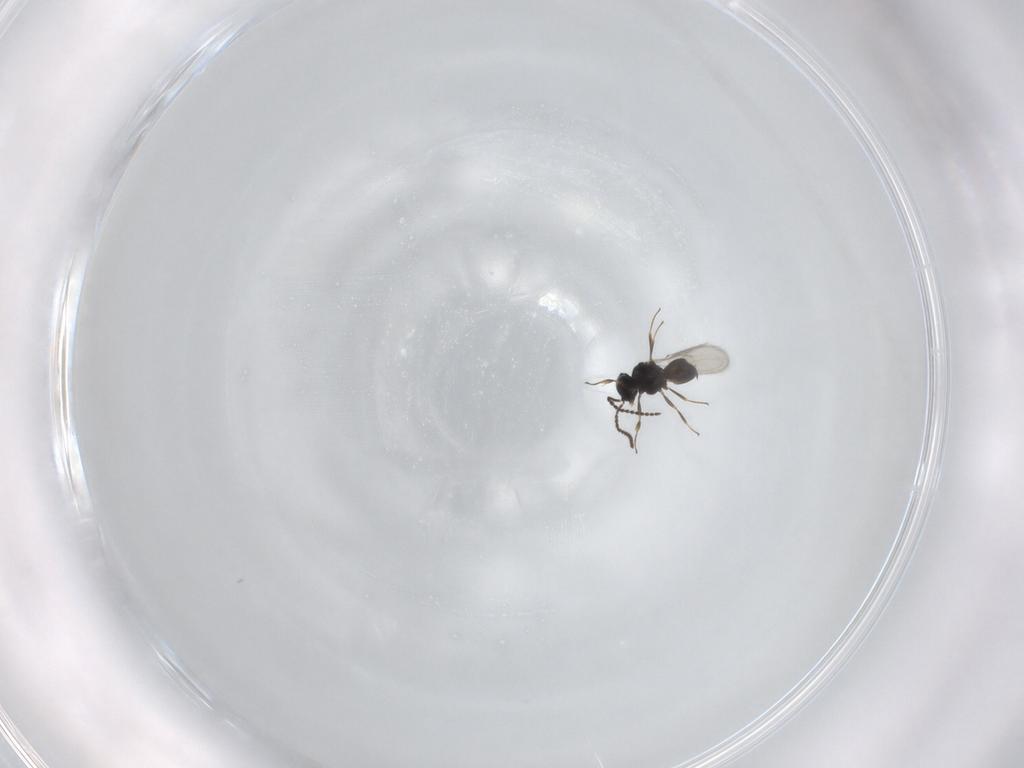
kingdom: Animalia
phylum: Arthropoda
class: Insecta
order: Hymenoptera
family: Scelionidae
